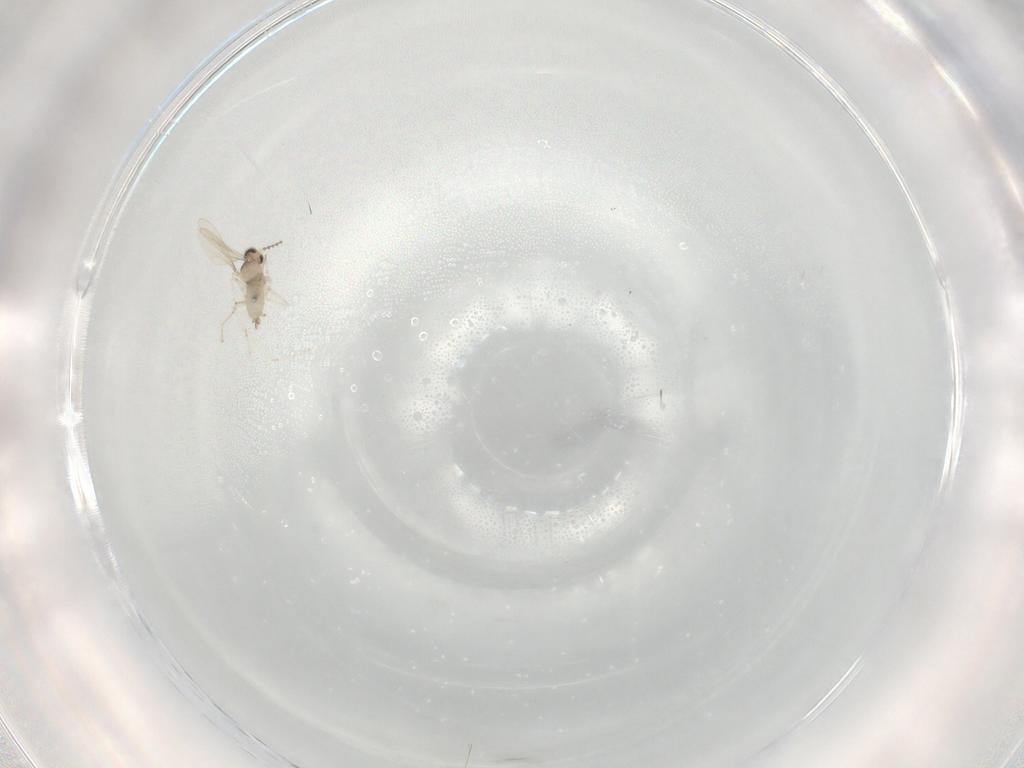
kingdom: Animalia
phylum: Arthropoda
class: Insecta
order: Diptera
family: Cecidomyiidae
